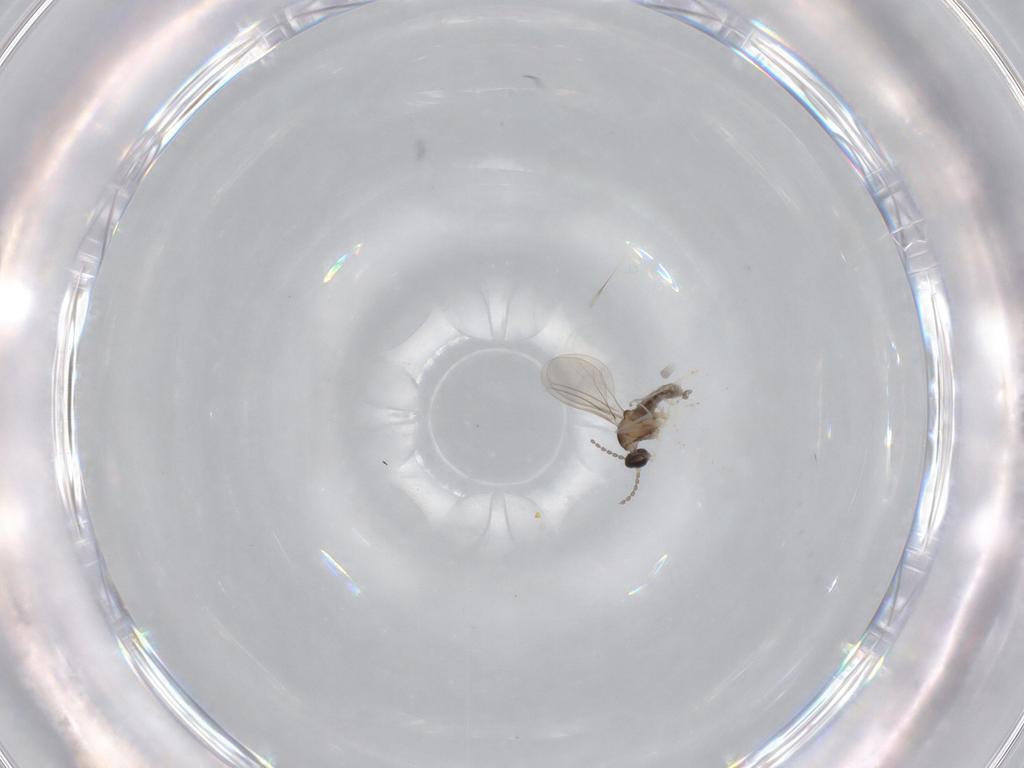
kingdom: Animalia
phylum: Arthropoda
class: Insecta
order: Diptera
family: Cecidomyiidae
